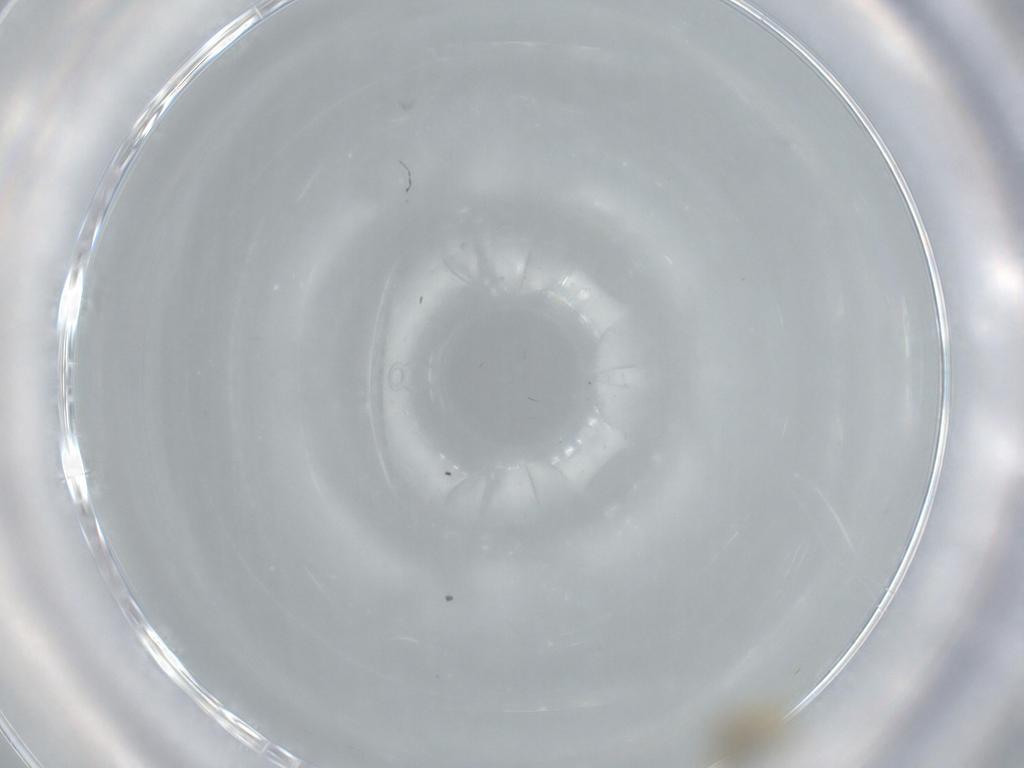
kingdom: Animalia
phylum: Arthropoda
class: Insecta
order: Diptera
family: Cecidomyiidae
